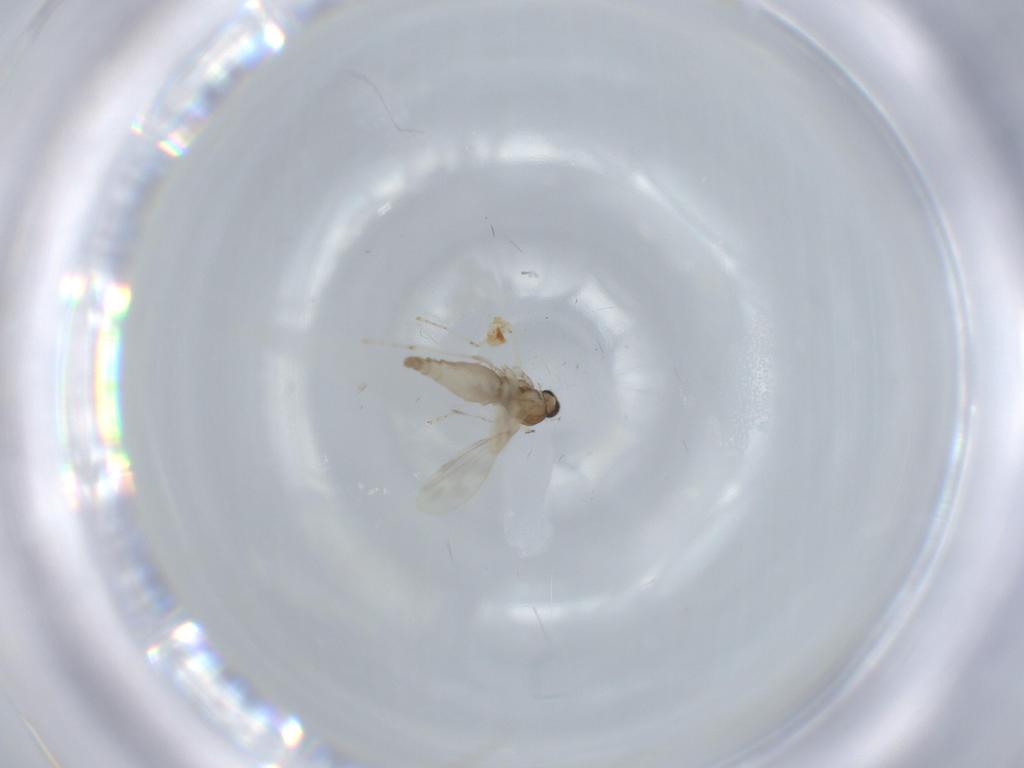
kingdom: Animalia
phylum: Arthropoda
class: Insecta
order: Diptera
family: Cecidomyiidae
